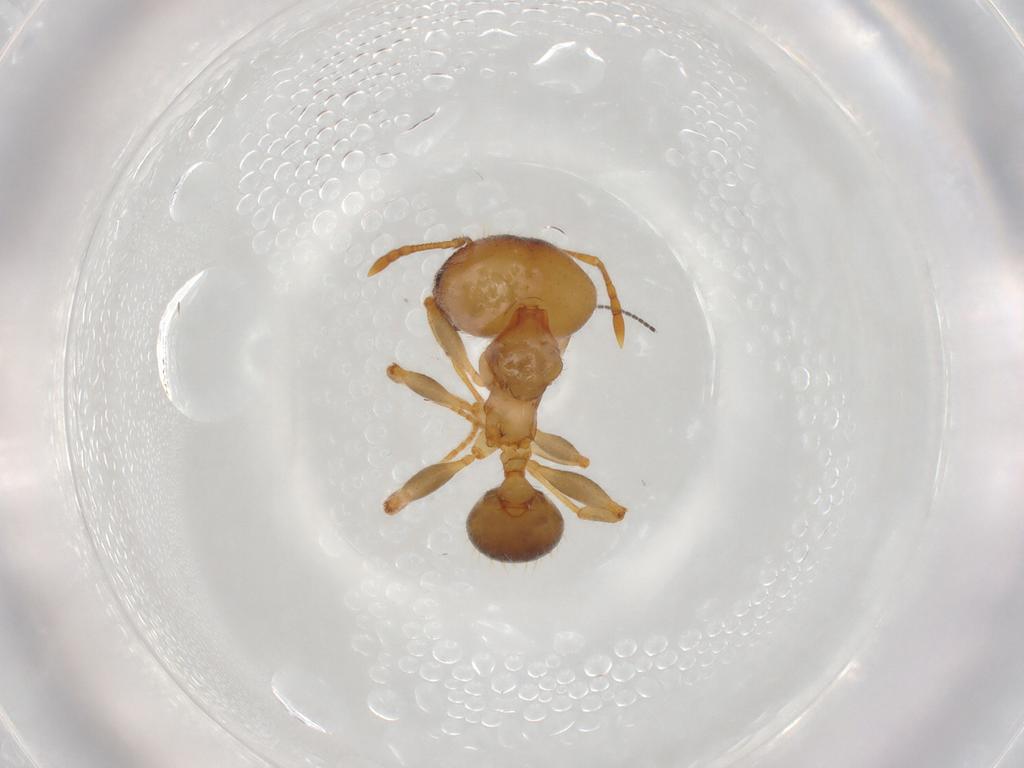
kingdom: Animalia
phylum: Arthropoda
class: Insecta
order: Hymenoptera
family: Scelionidae
